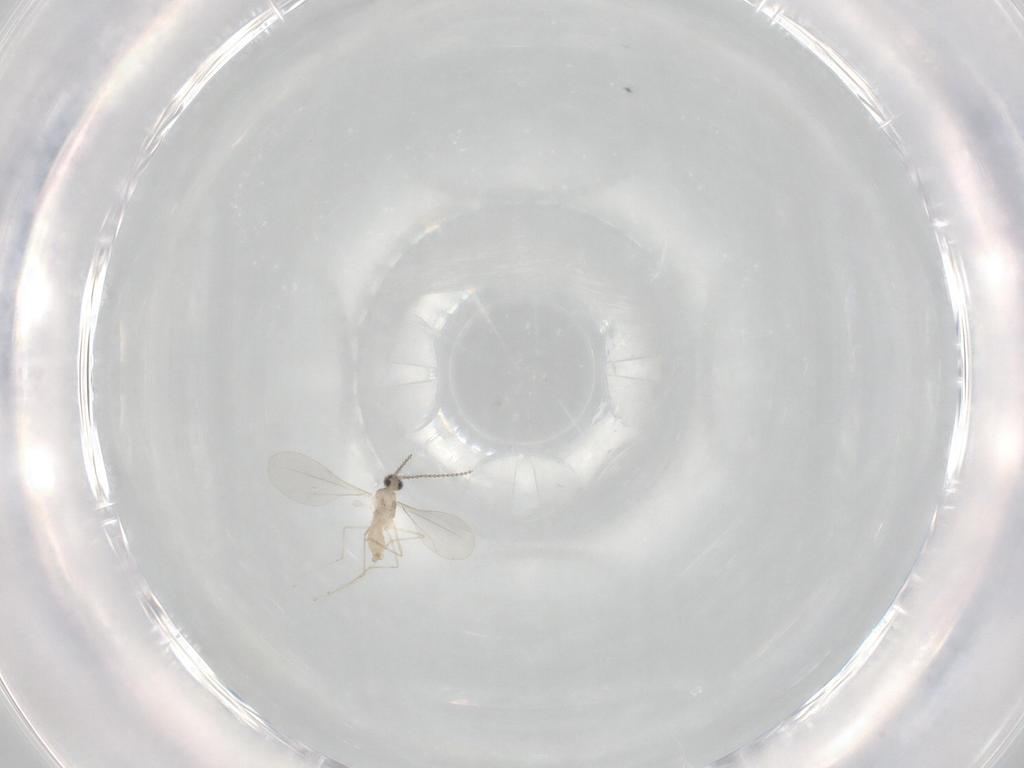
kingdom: Animalia
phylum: Arthropoda
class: Insecta
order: Diptera
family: Cecidomyiidae
